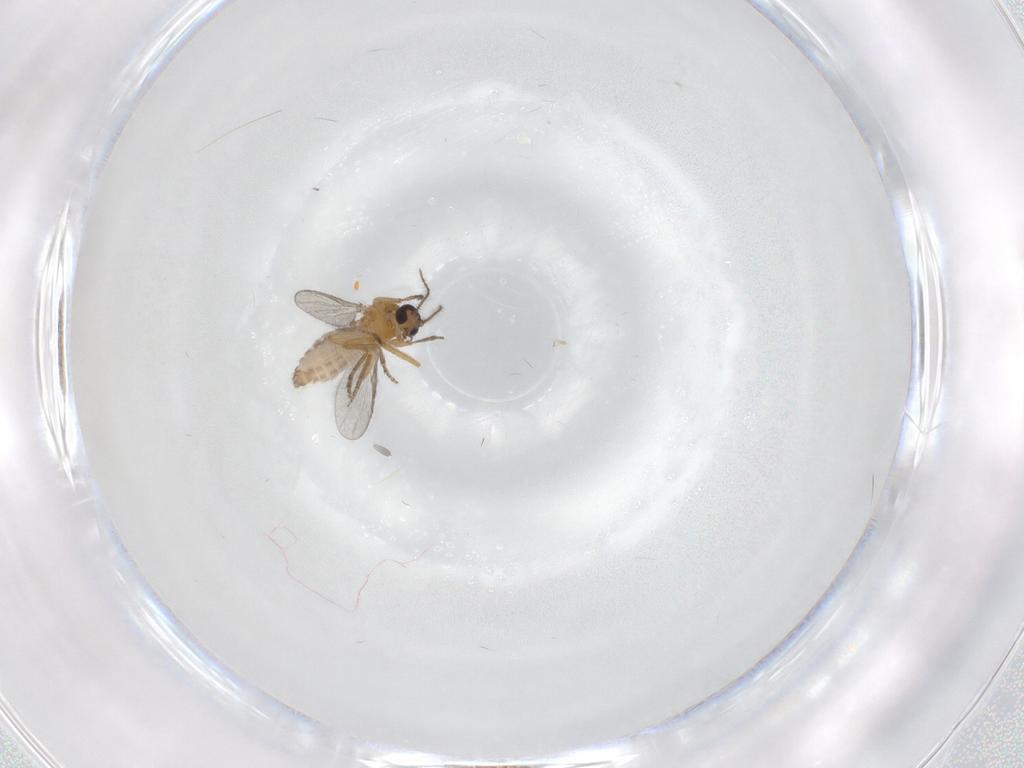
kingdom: Animalia
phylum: Arthropoda
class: Insecta
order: Diptera
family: Ceratopogonidae
